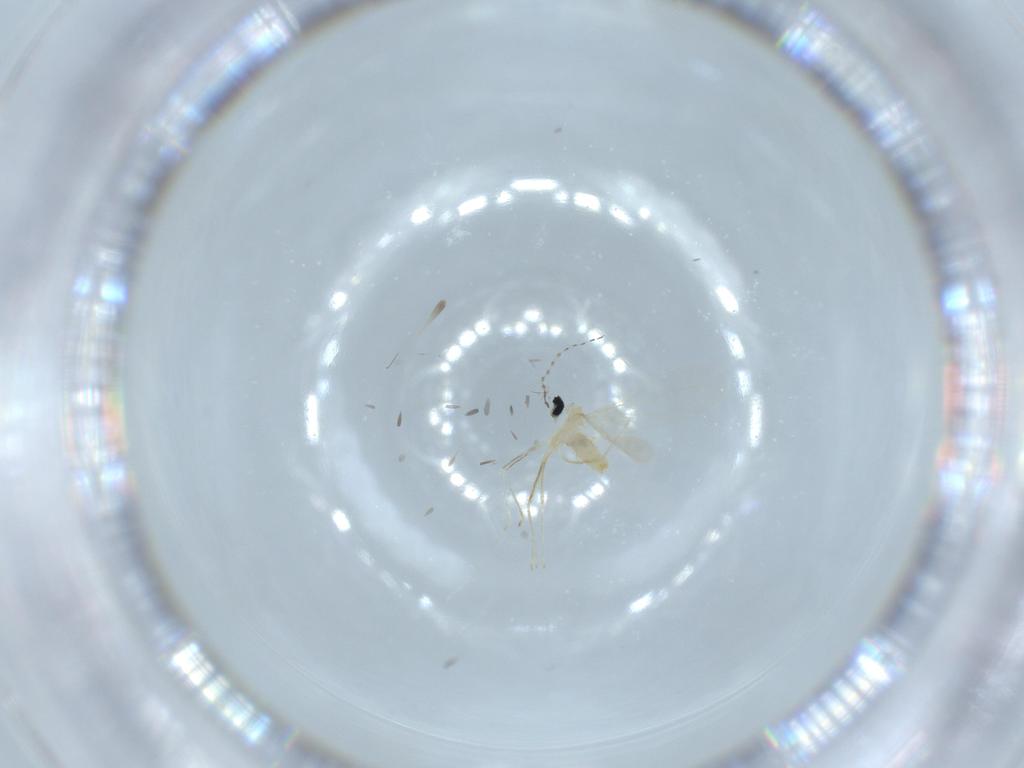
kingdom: Animalia
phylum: Arthropoda
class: Insecta
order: Diptera
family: Cecidomyiidae
